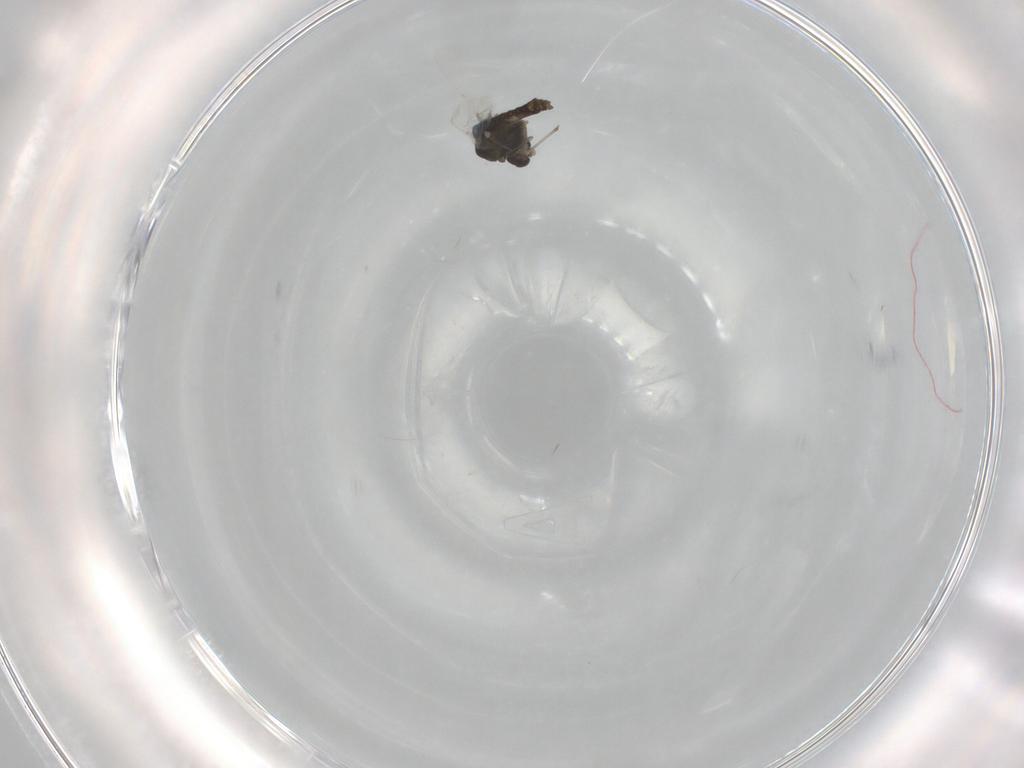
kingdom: Animalia
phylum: Arthropoda
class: Insecta
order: Diptera
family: Chironomidae
